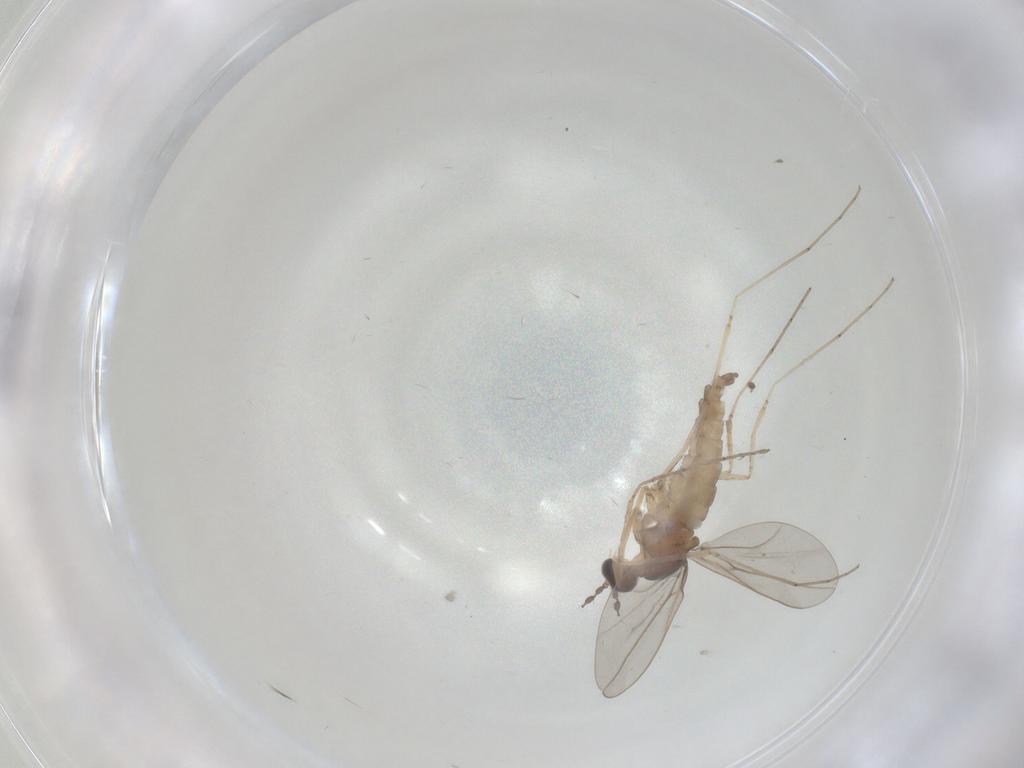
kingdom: Animalia
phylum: Arthropoda
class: Insecta
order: Diptera
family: Cecidomyiidae
